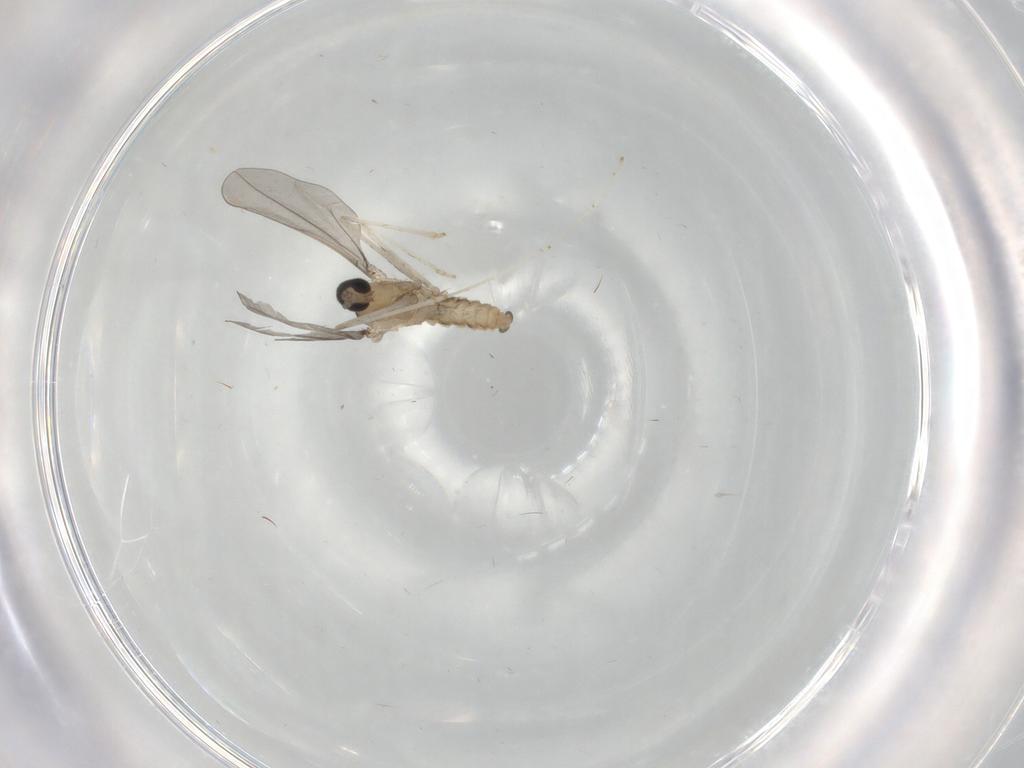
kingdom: Animalia
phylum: Arthropoda
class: Insecta
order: Diptera
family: Cecidomyiidae
